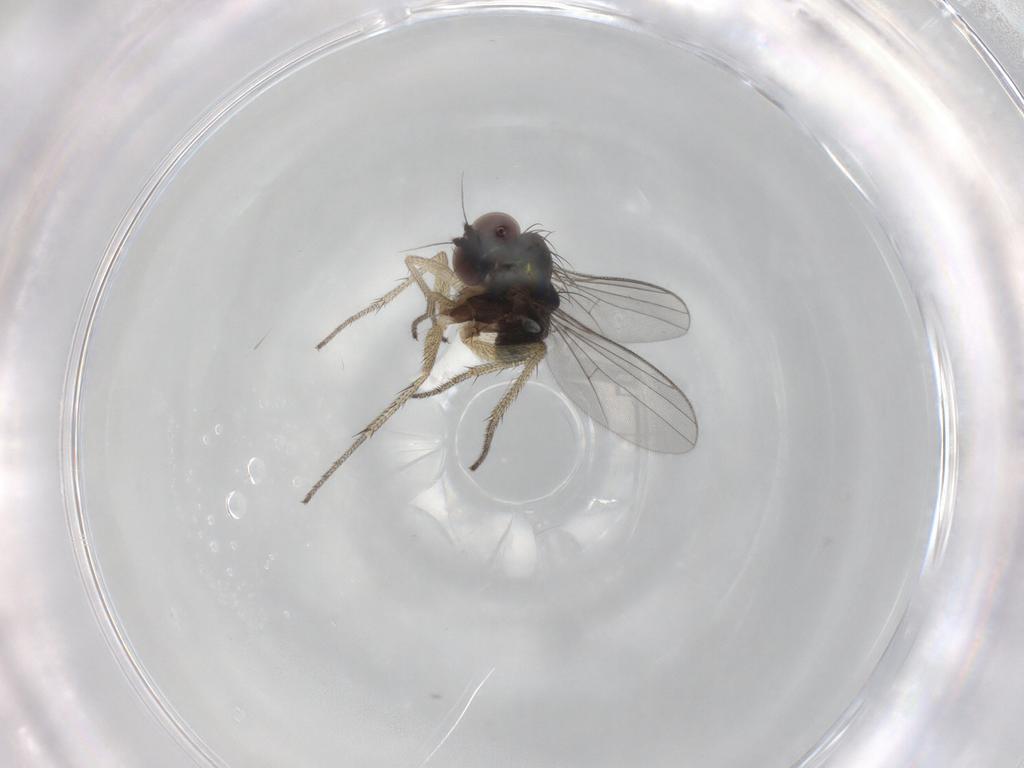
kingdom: Animalia
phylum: Arthropoda
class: Insecta
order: Diptera
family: Dolichopodidae
